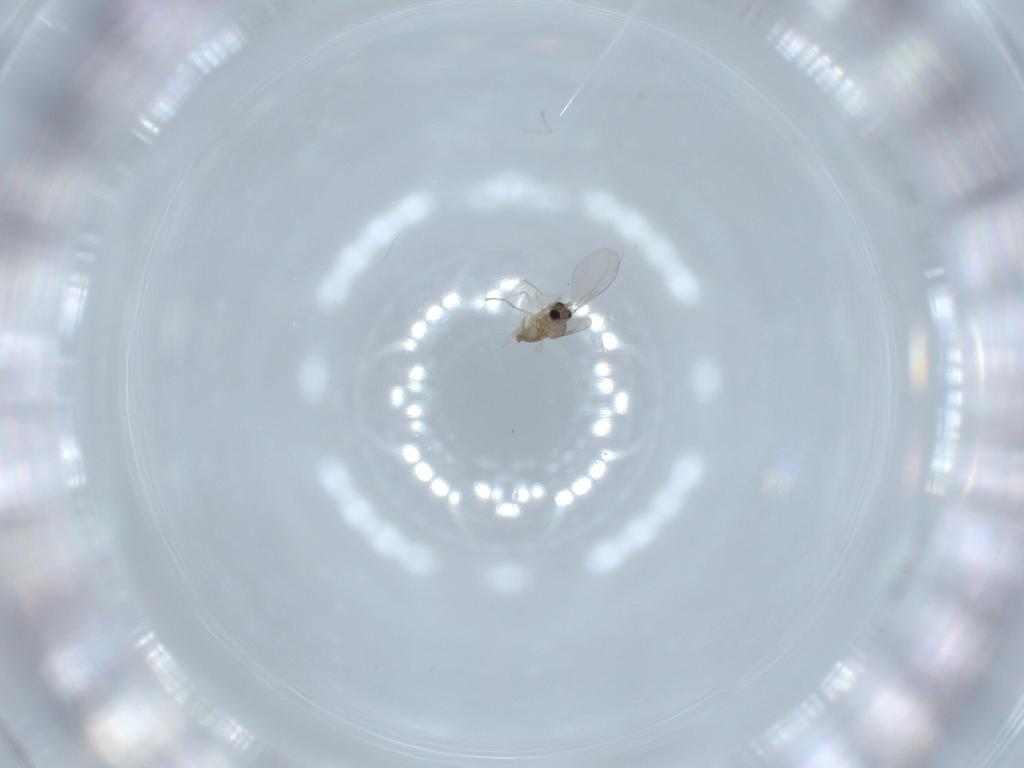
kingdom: Animalia
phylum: Arthropoda
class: Insecta
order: Diptera
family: Cecidomyiidae
